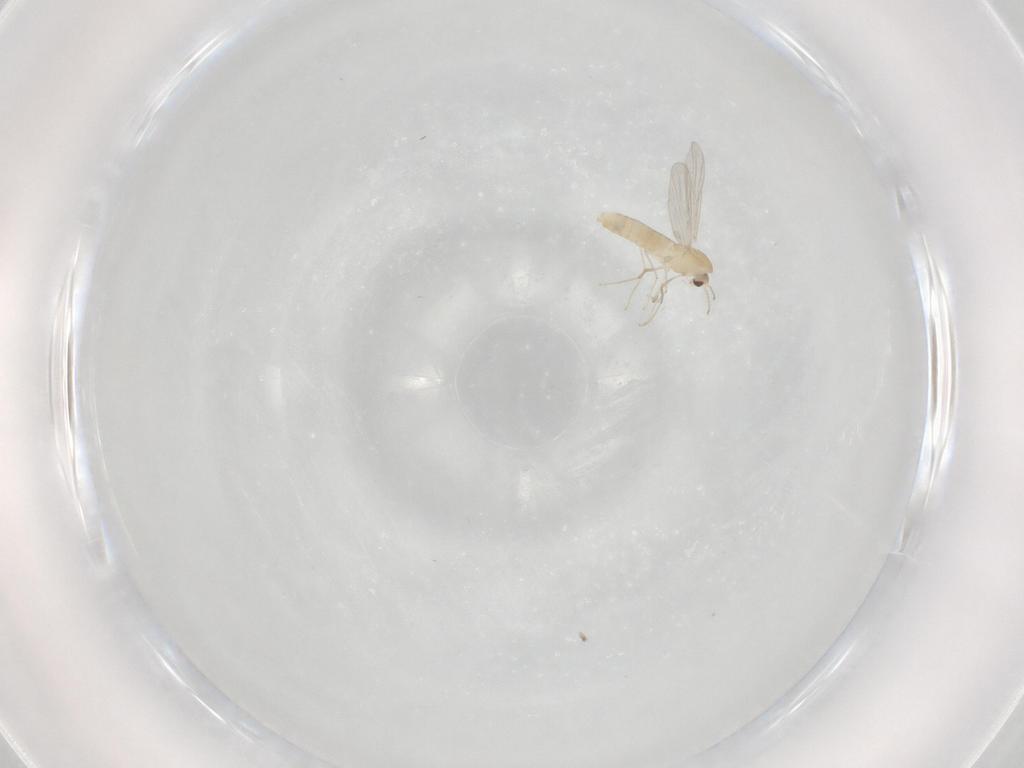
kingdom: Animalia
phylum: Arthropoda
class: Insecta
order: Diptera
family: Chironomidae
